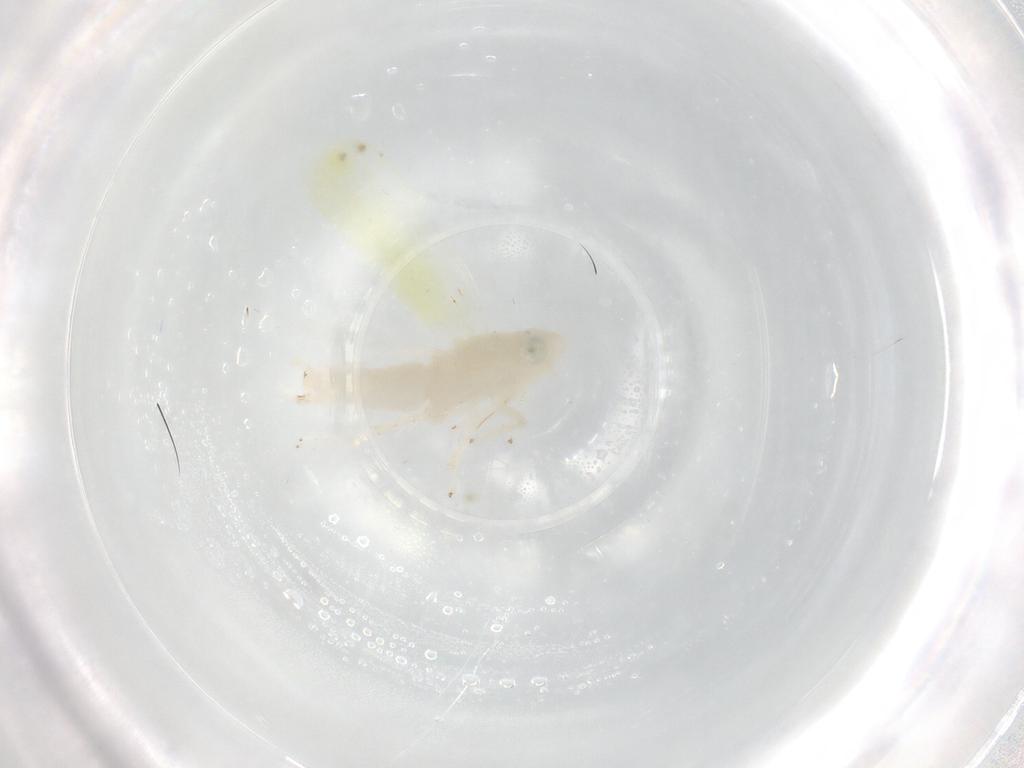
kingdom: Animalia
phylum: Arthropoda
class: Insecta
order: Hemiptera
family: Cicadellidae
